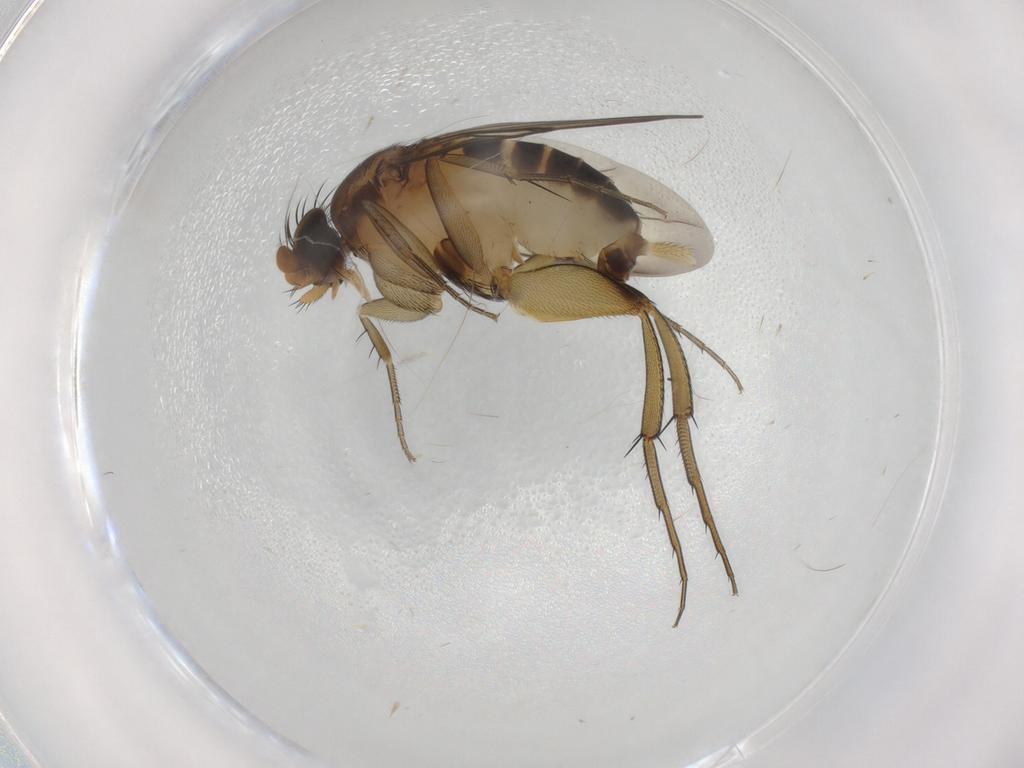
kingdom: Animalia
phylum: Arthropoda
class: Insecta
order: Diptera
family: Phoridae
